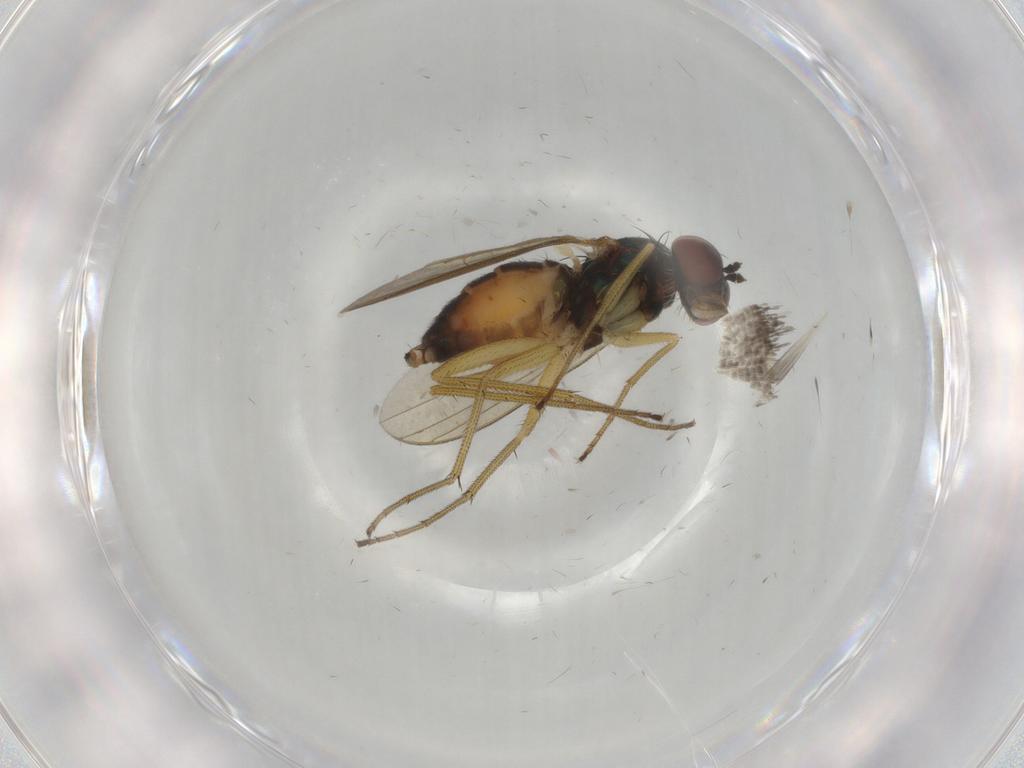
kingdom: Animalia
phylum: Arthropoda
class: Insecta
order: Diptera
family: Dolichopodidae
